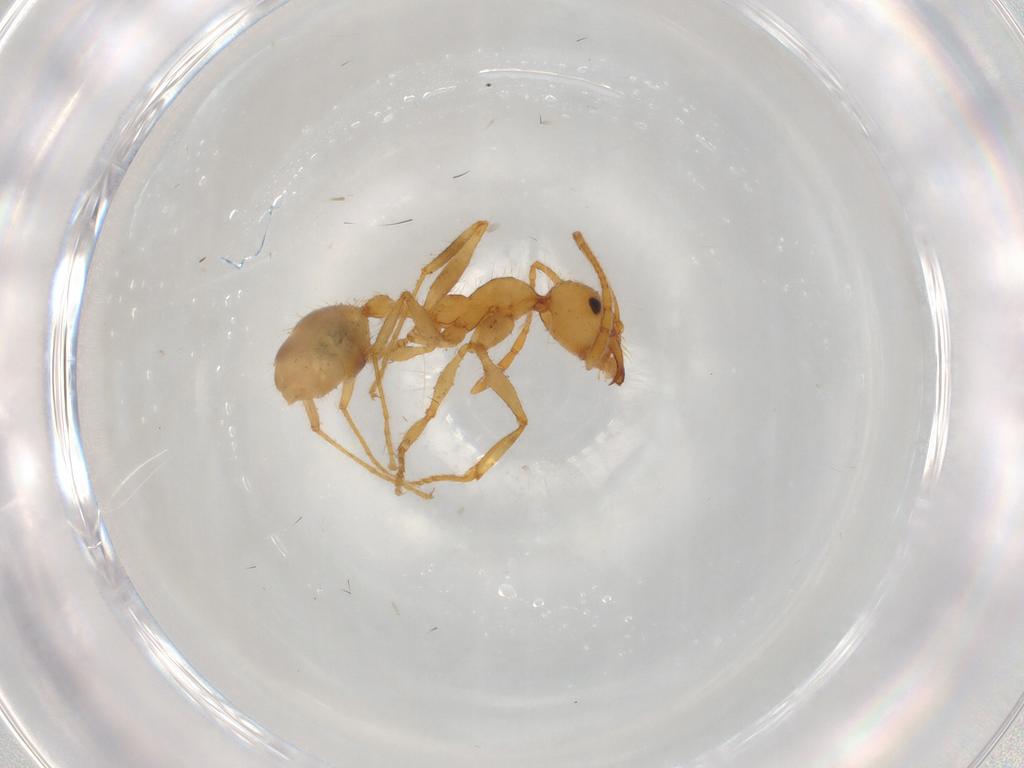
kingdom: Animalia
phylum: Arthropoda
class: Insecta
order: Hymenoptera
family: Formicidae
